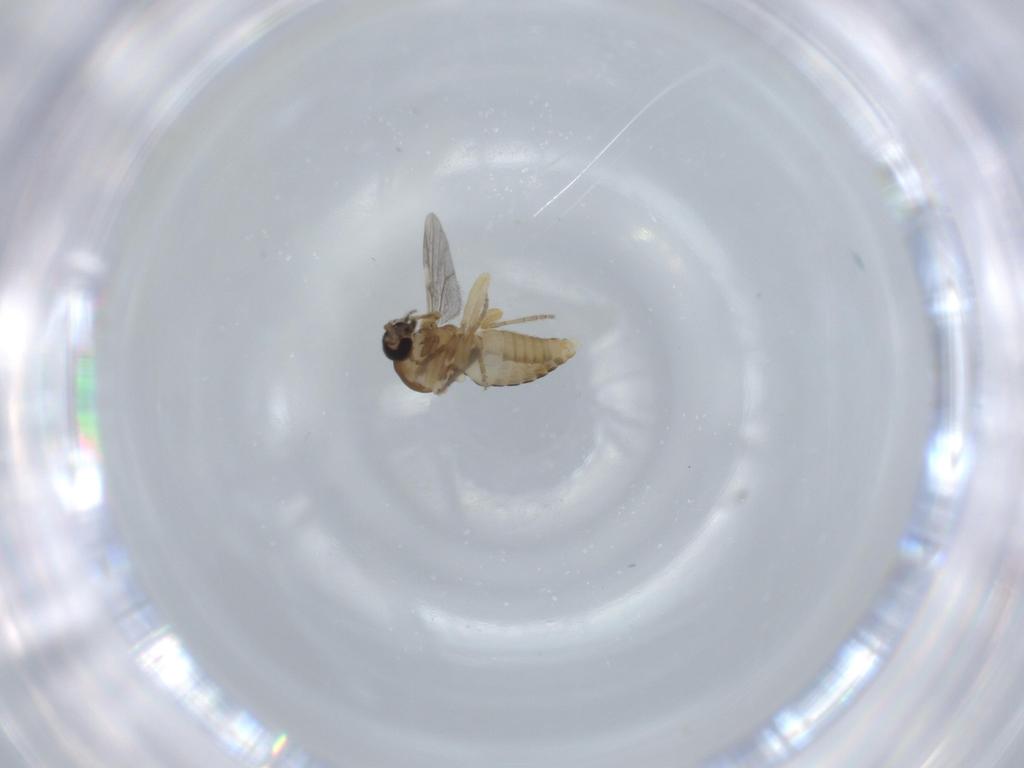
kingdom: Animalia
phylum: Arthropoda
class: Insecta
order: Diptera
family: Ceratopogonidae
